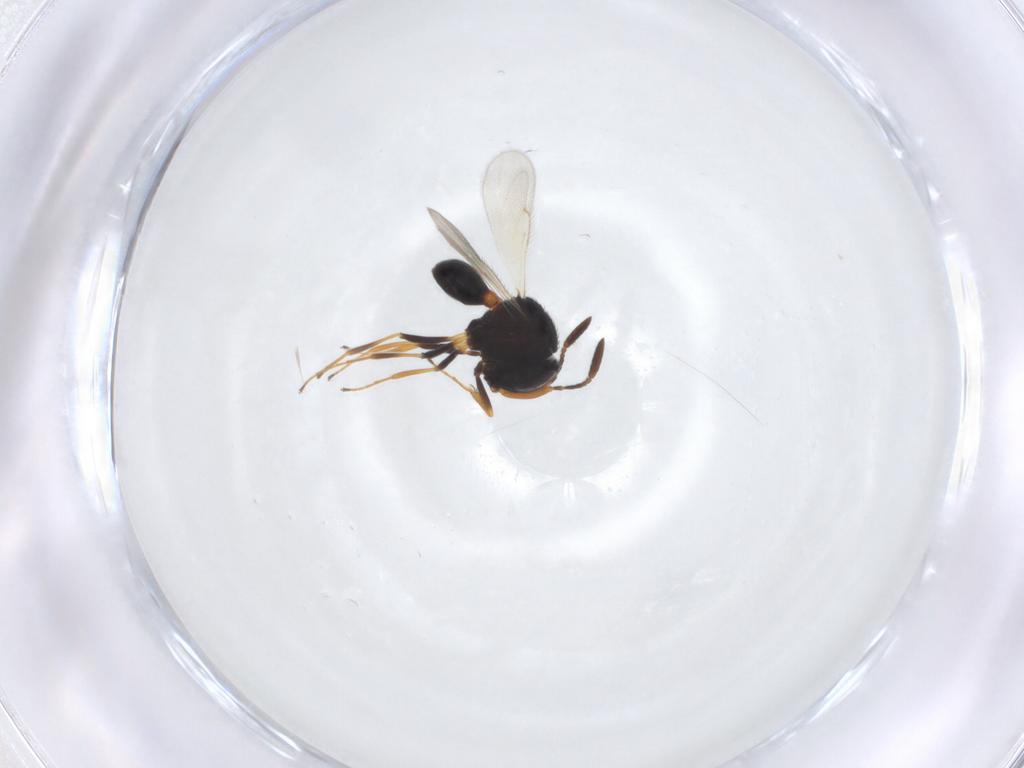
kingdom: Animalia
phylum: Arthropoda
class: Insecta
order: Hymenoptera
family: Scelionidae
